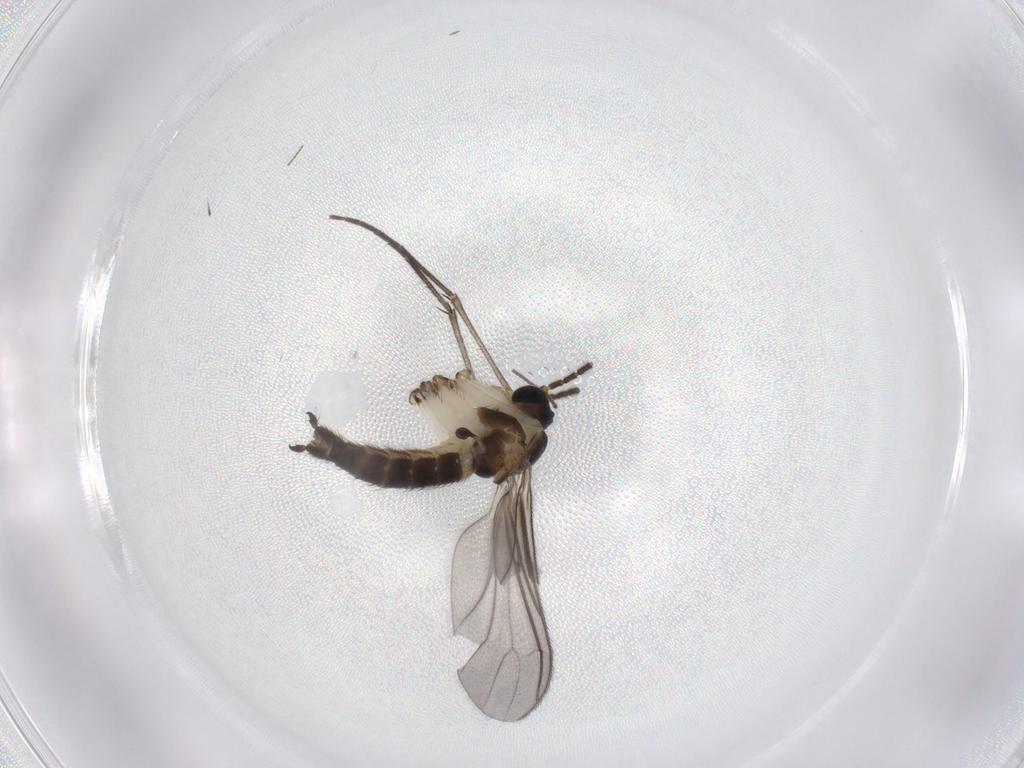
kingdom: Animalia
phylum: Arthropoda
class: Insecta
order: Diptera
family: Sciaridae
